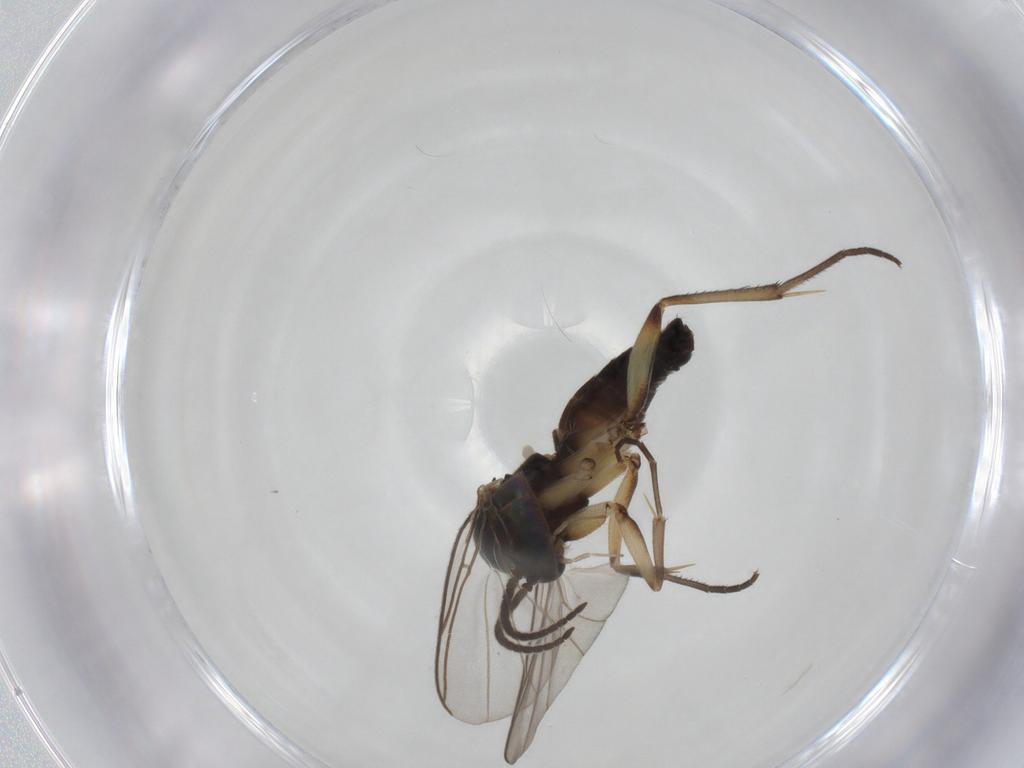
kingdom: Animalia
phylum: Arthropoda
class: Insecta
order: Diptera
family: Mycetophilidae
